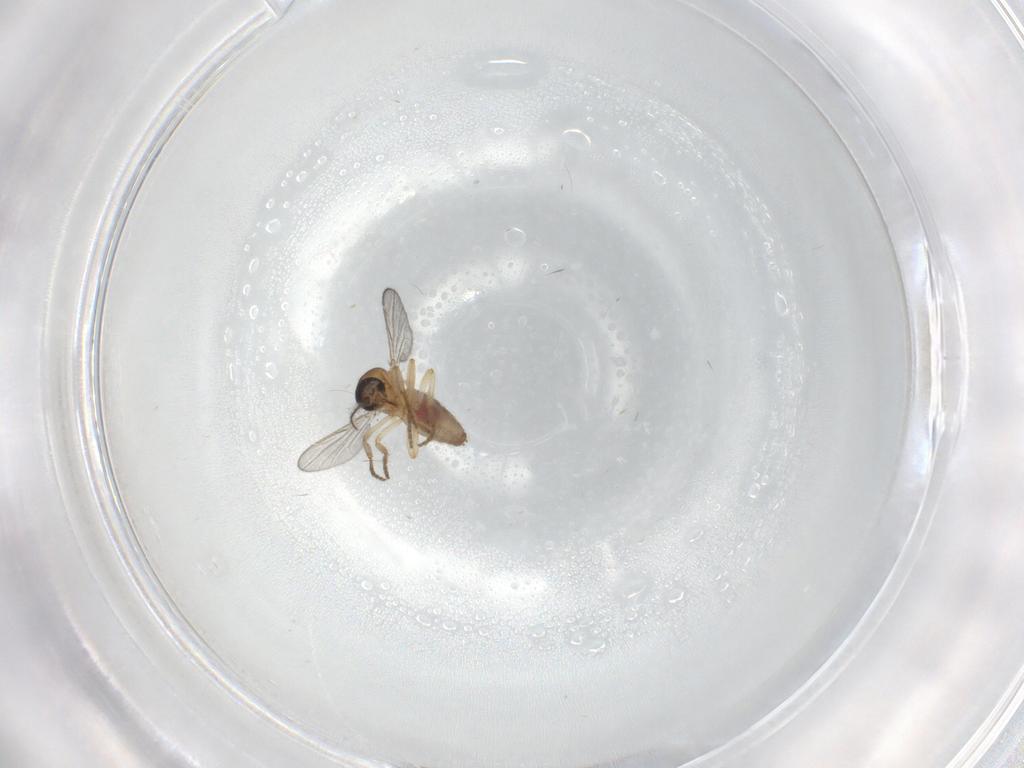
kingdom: Animalia
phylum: Arthropoda
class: Insecta
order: Diptera
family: Ceratopogonidae
